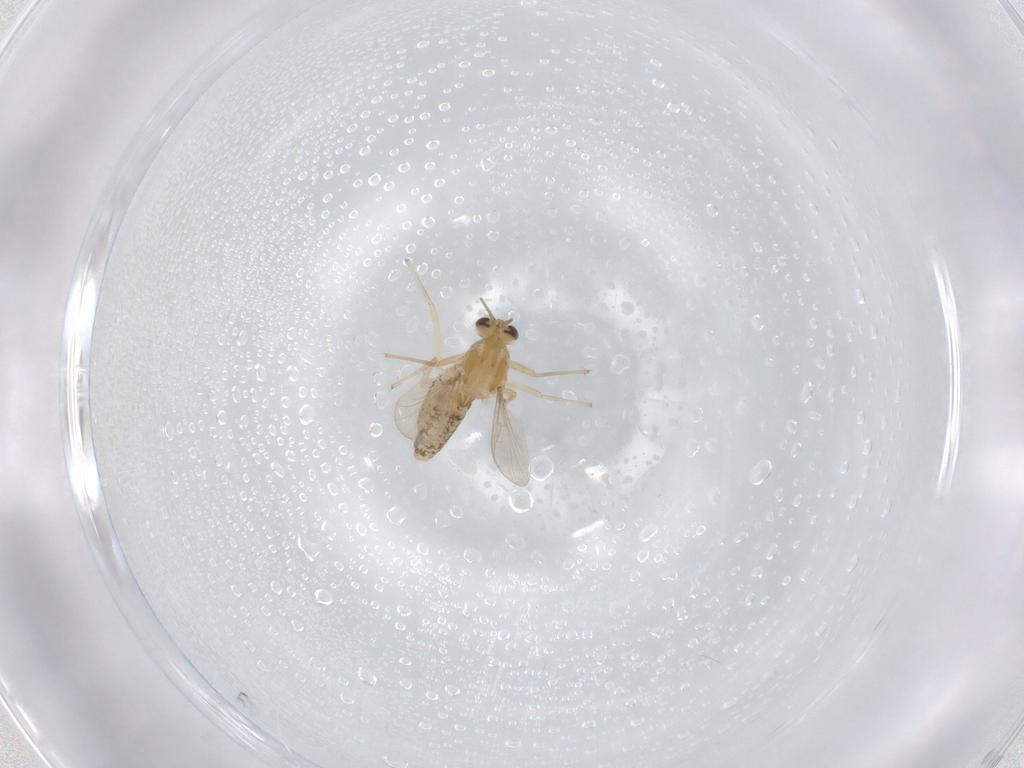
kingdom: Animalia
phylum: Arthropoda
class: Insecta
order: Diptera
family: Chironomidae
